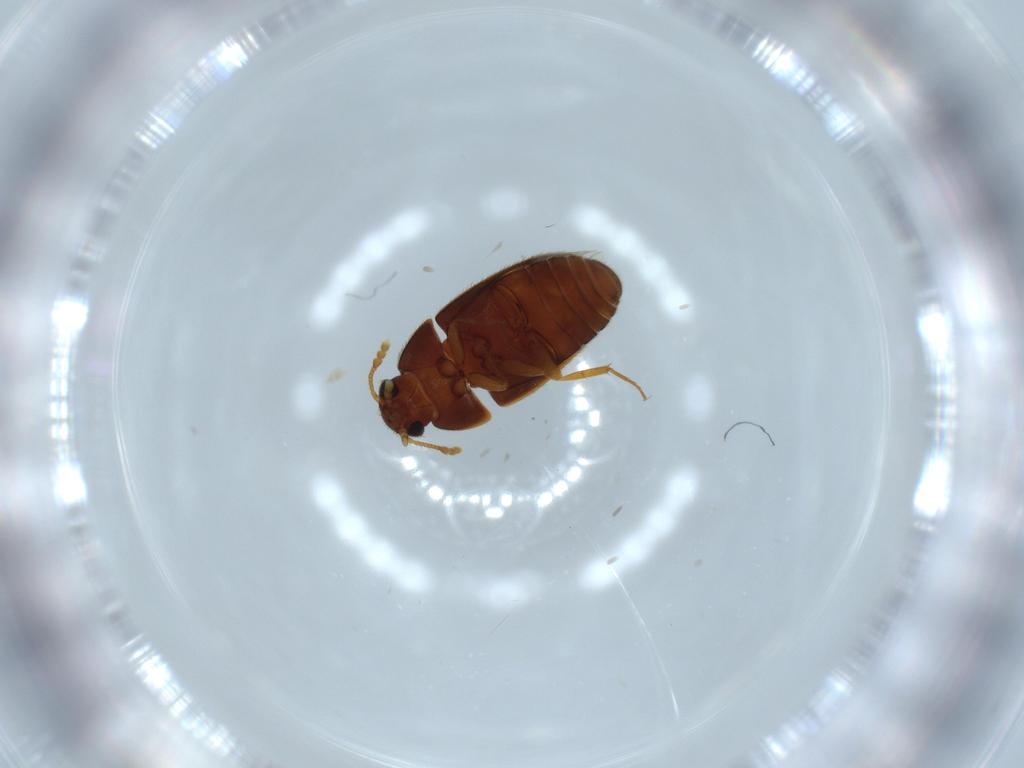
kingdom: Animalia
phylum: Arthropoda
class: Insecta
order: Coleoptera
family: Mycetophagidae
